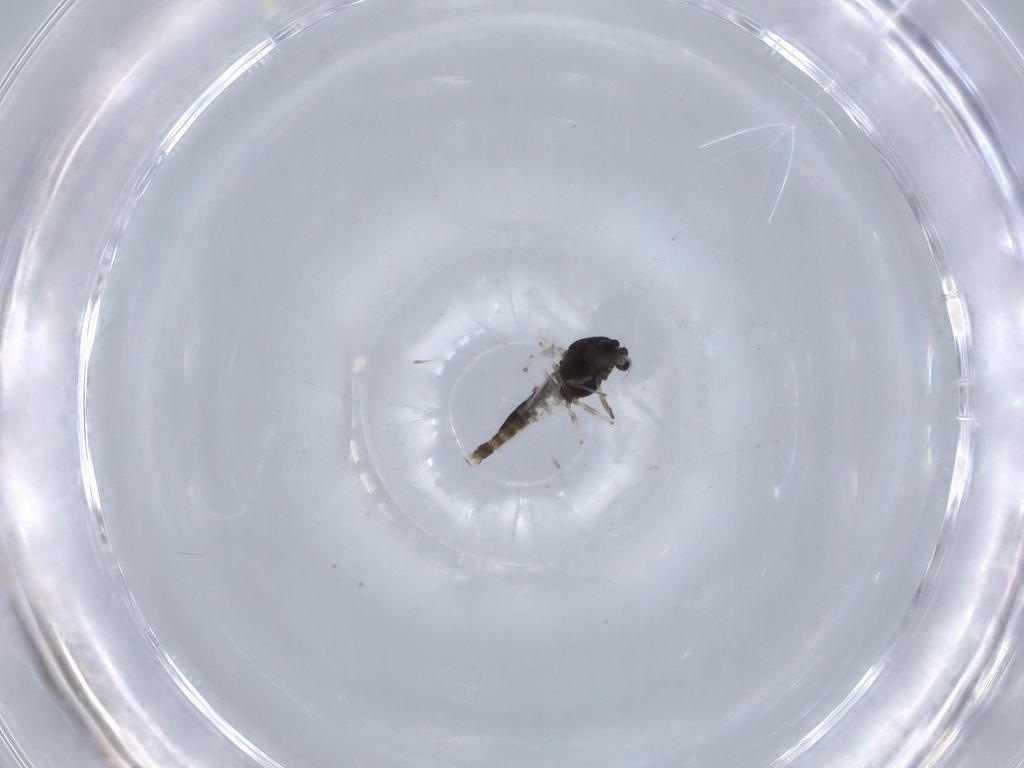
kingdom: Animalia
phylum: Arthropoda
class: Insecta
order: Diptera
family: Chironomidae
